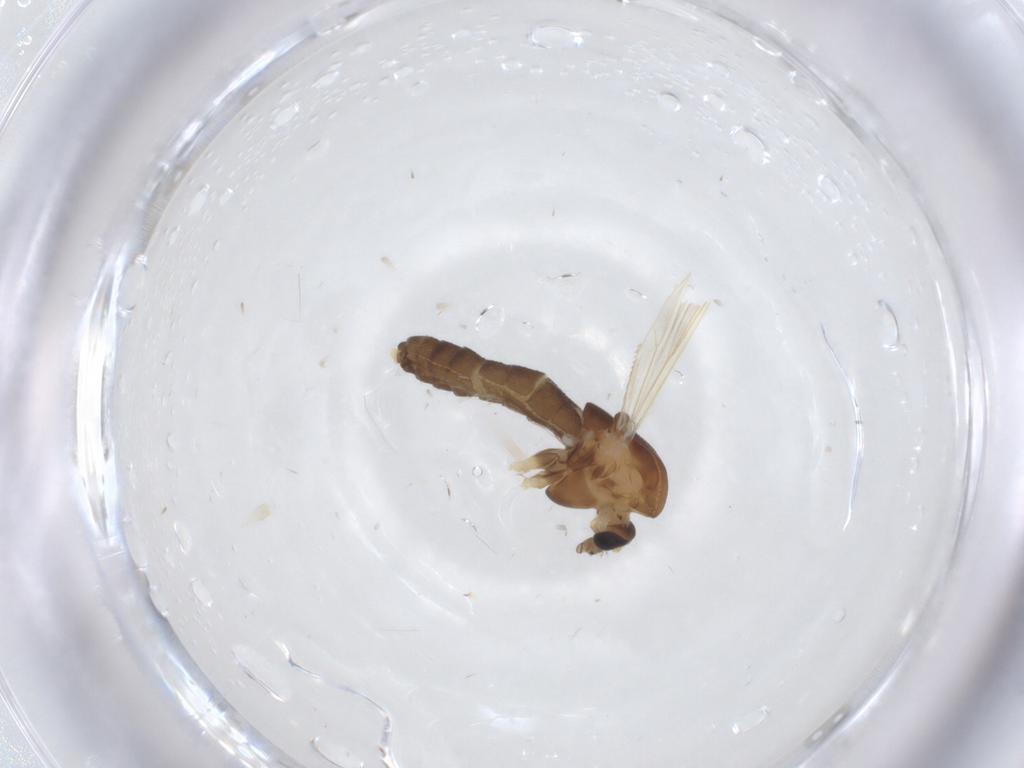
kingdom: Animalia
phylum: Arthropoda
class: Insecta
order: Diptera
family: Chironomidae
